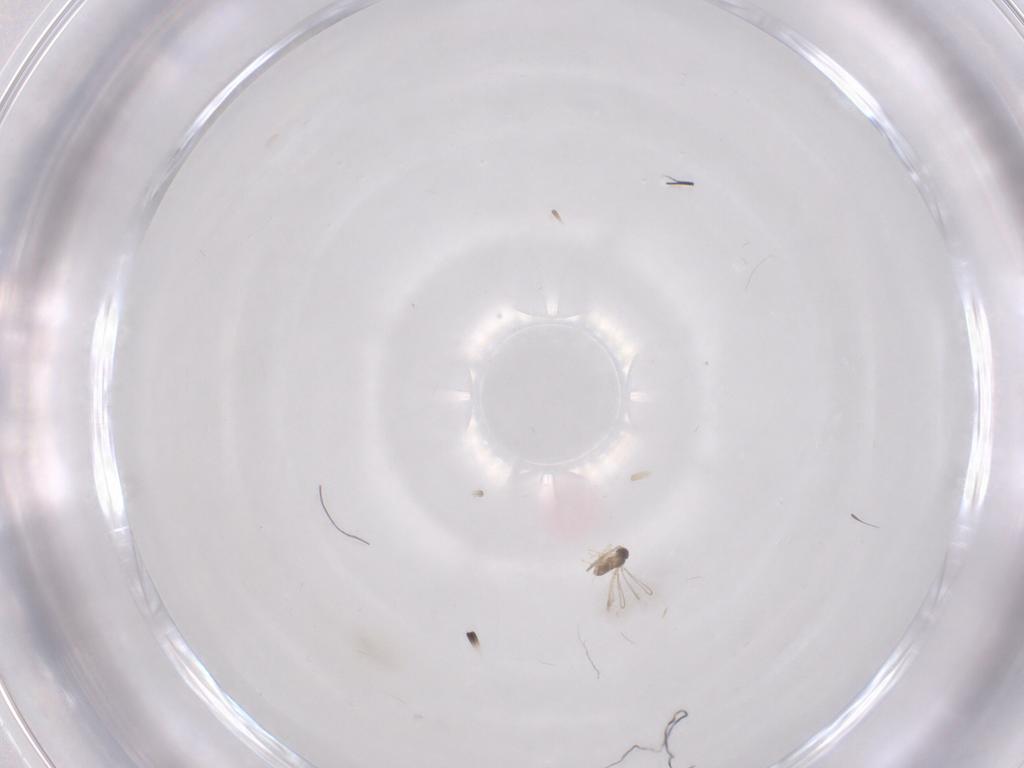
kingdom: Animalia
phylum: Arthropoda
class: Insecta
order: Hymenoptera
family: Mymaridae
